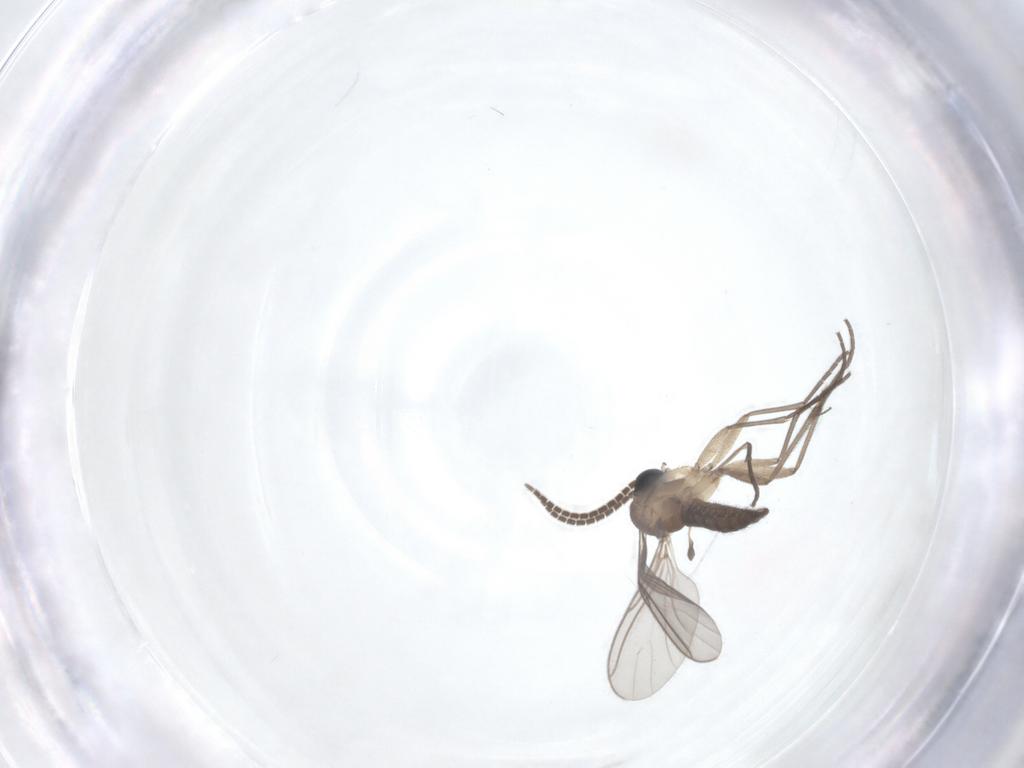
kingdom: Animalia
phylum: Arthropoda
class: Insecta
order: Diptera
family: Sciaridae
